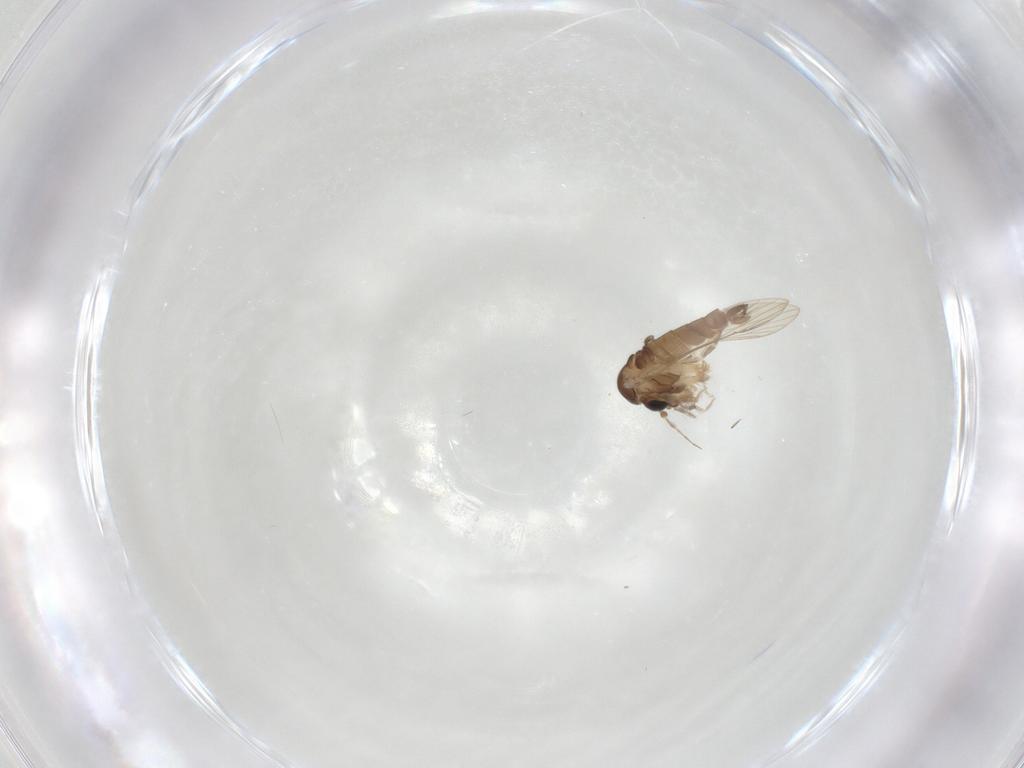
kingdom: Animalia
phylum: Arthropoda
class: Insecta
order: Diptera
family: Psychodidae
